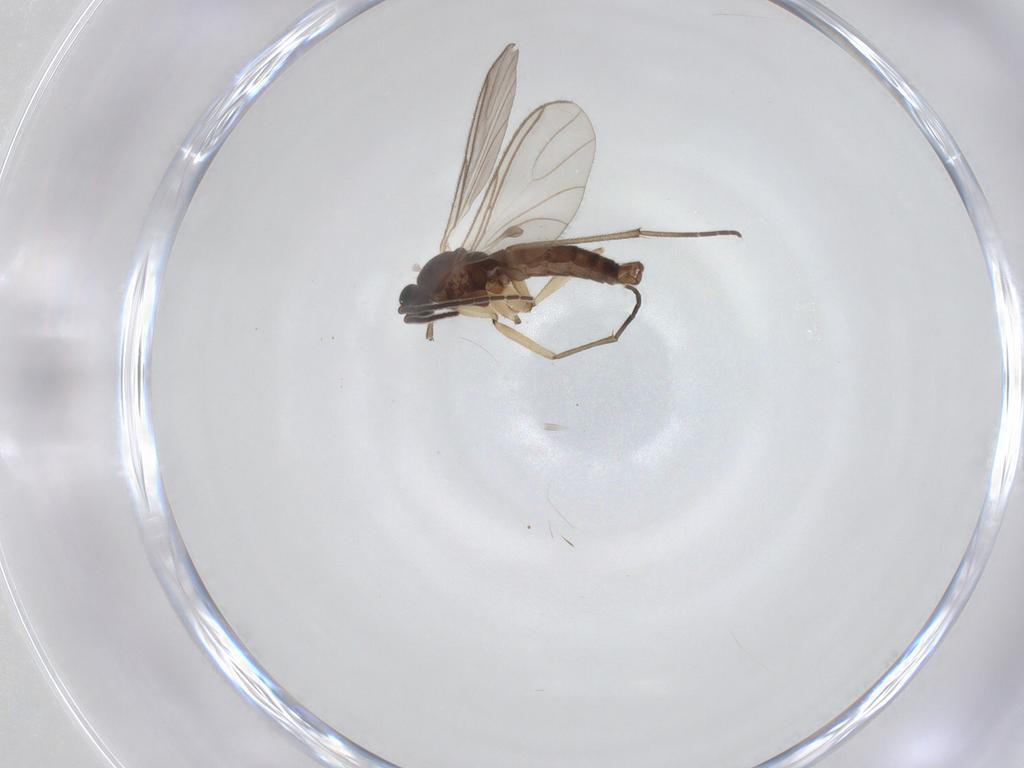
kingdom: Animalia
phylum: Arthropoda
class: Insecta
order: Diptera
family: Sciaridae
